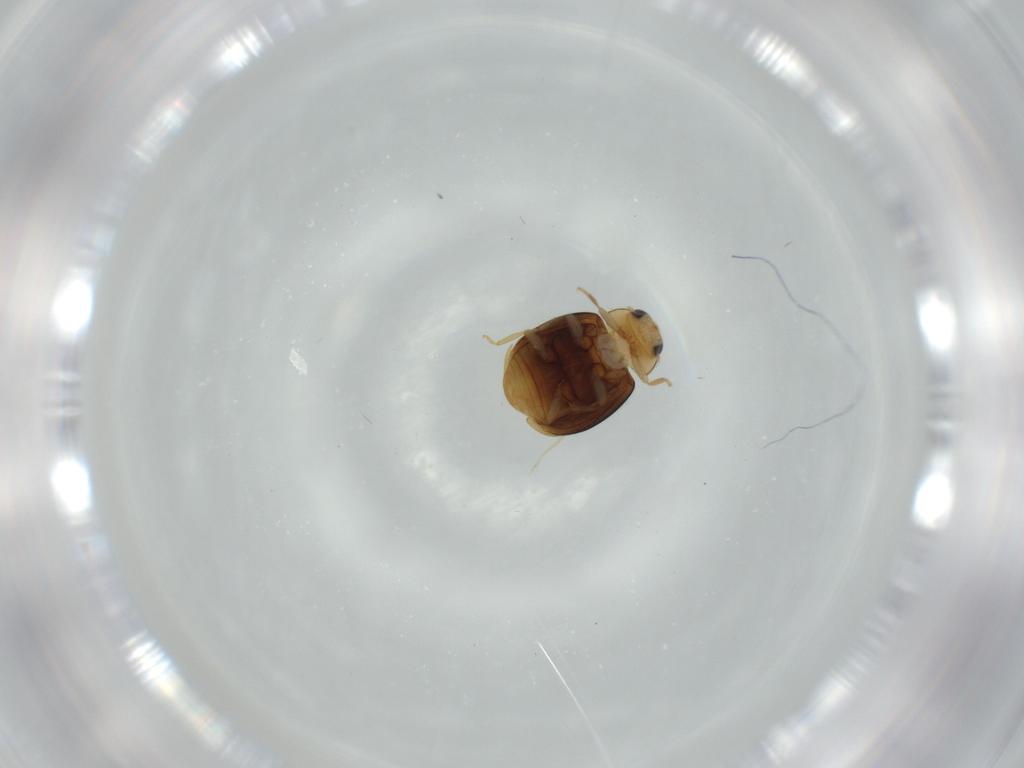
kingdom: Animalia
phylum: Arthropoda
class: Insecta
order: Coleoptera
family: Coccinellidae
